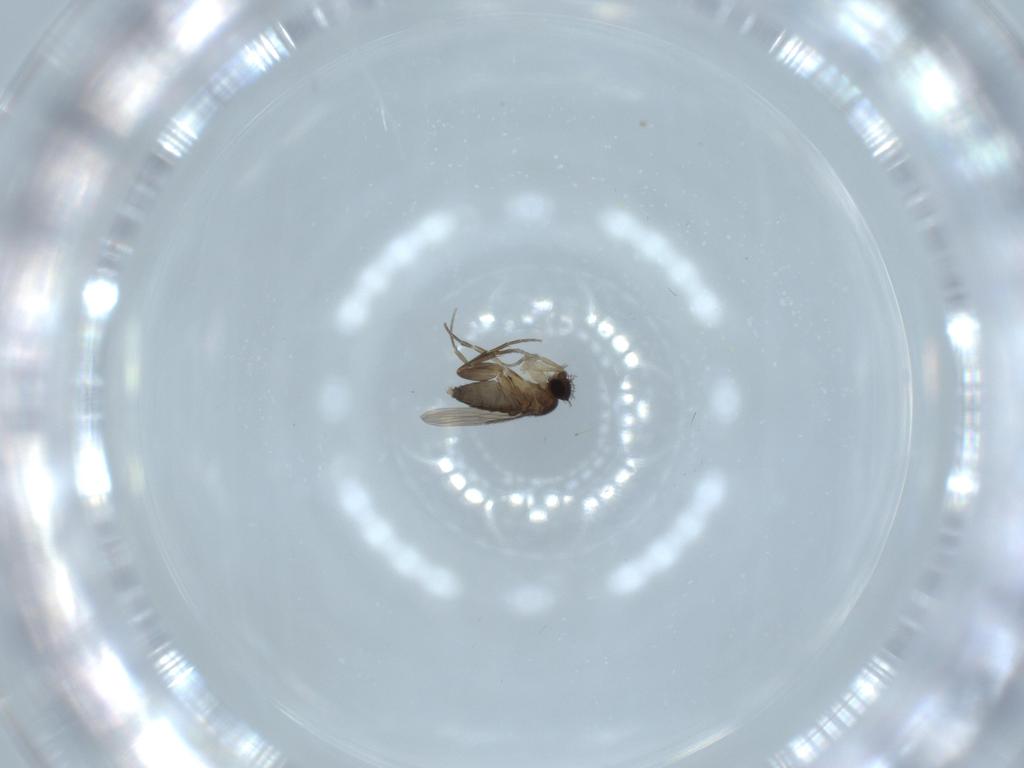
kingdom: Animalia
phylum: Arthropoda
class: Insecta
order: Diptera
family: Phoridae
